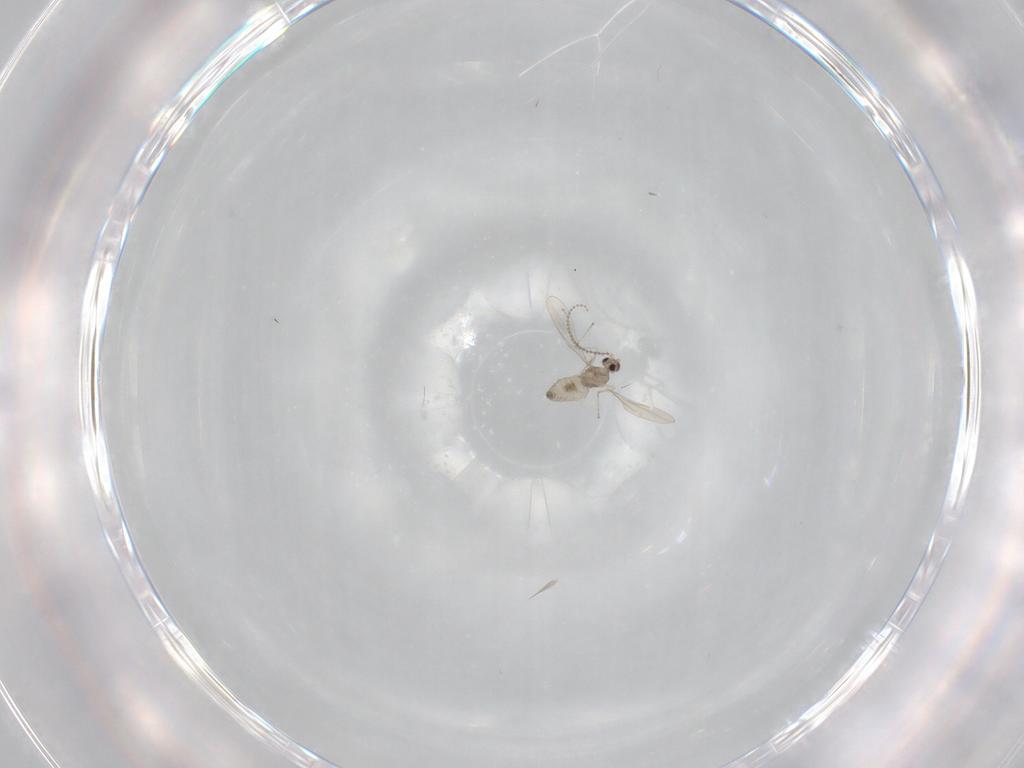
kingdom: Animalia
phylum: Arthropoda
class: Insecta
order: Diptera
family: Cecidomyiidae
